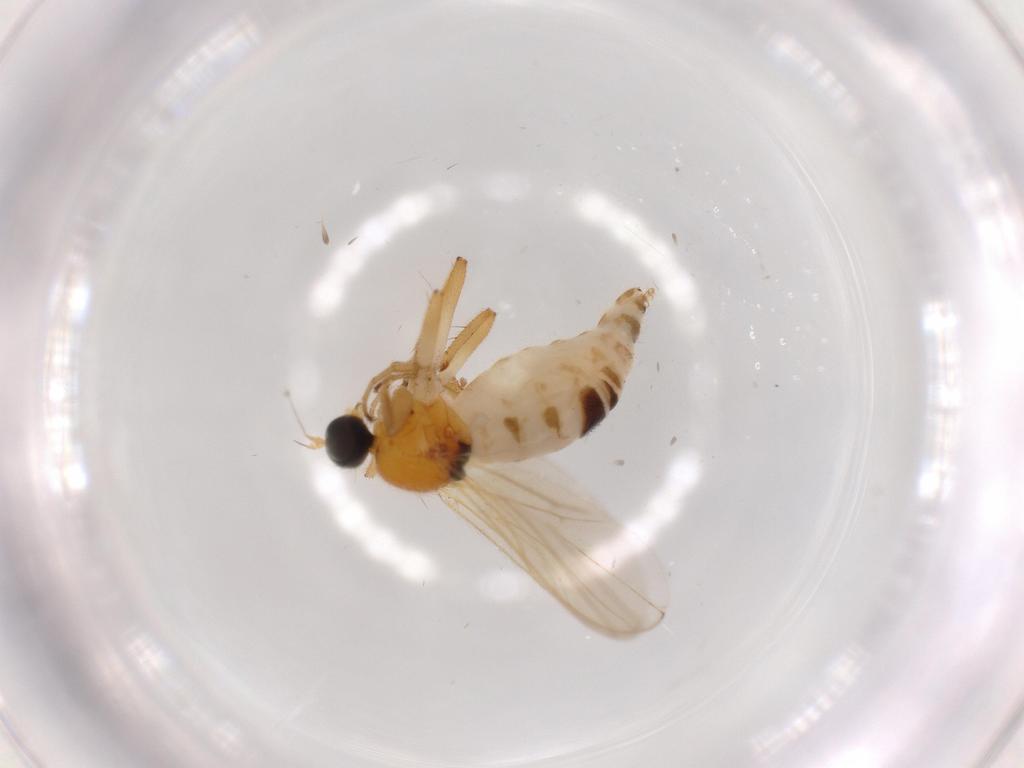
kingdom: Animalia
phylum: Arthropoda
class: Insecta
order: Diptera
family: Hybotidae
